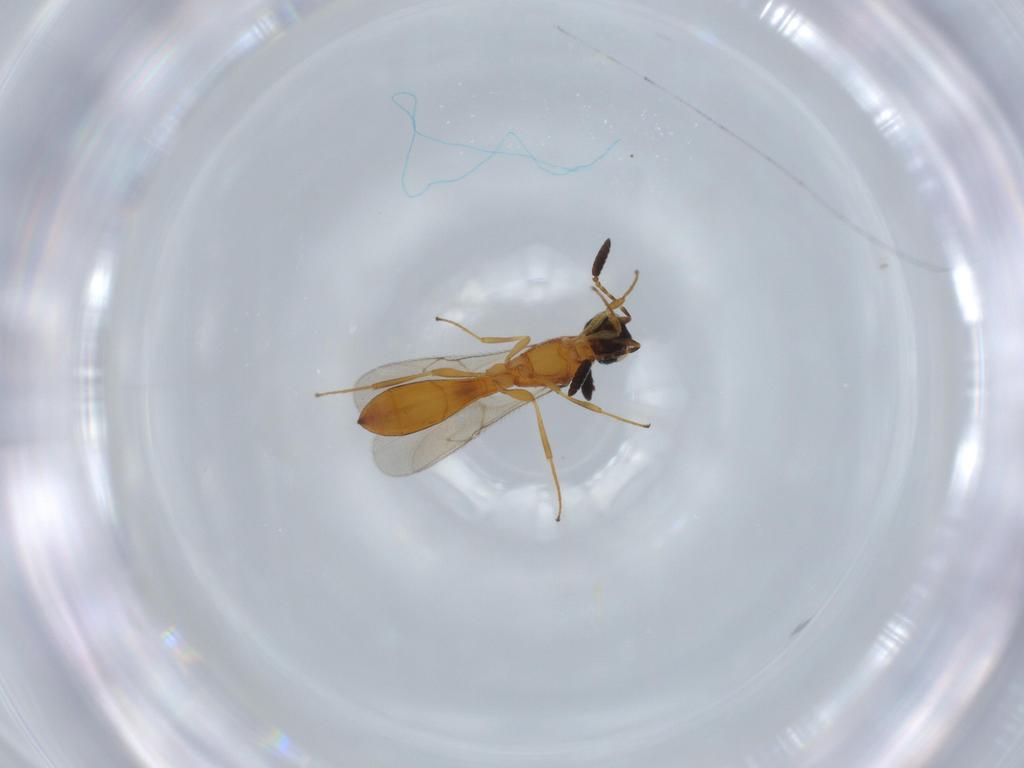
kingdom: Animalia
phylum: Arthropoda
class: Insecta
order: Hymenoptera
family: Scelionidae
